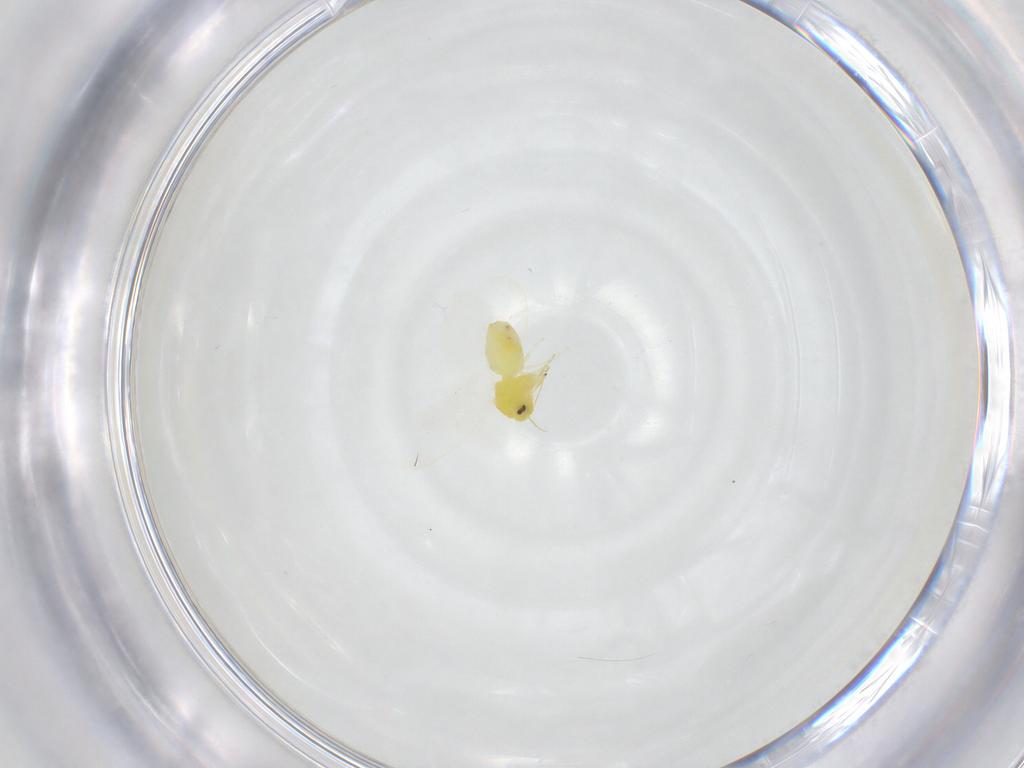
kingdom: Animalia
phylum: Arthropoda
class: Insecta
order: Hemiptera
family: Aleyrodidae
